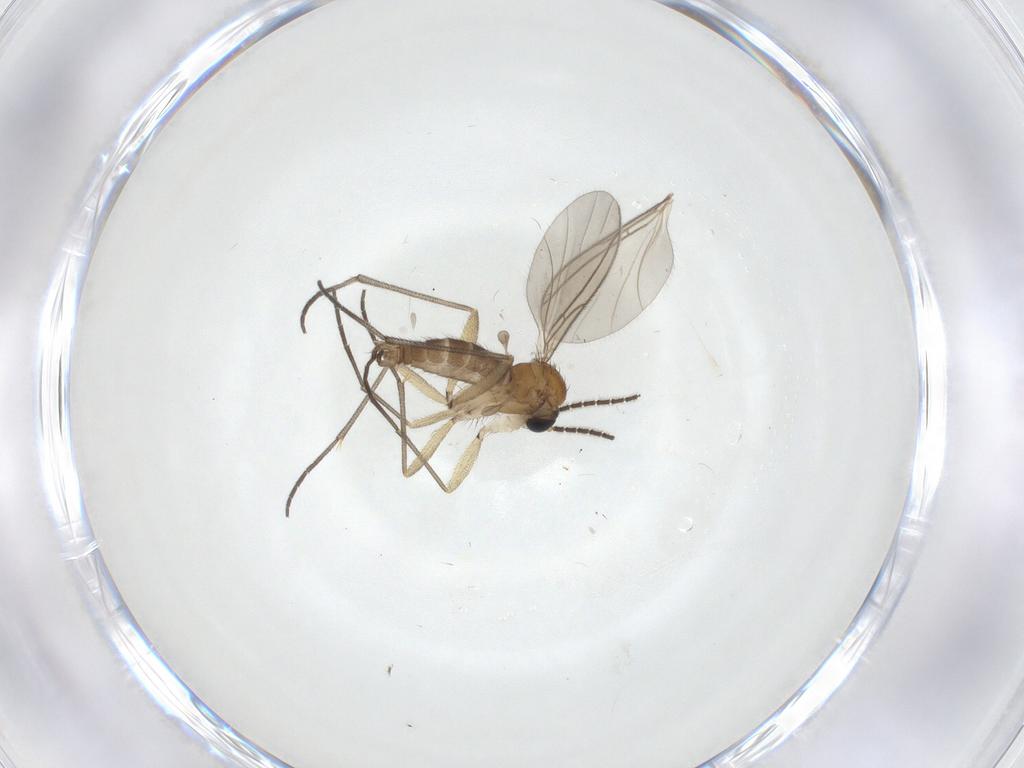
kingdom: Animalia
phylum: Arthropoda
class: Insecta
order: Diptera
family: Sciaridae
